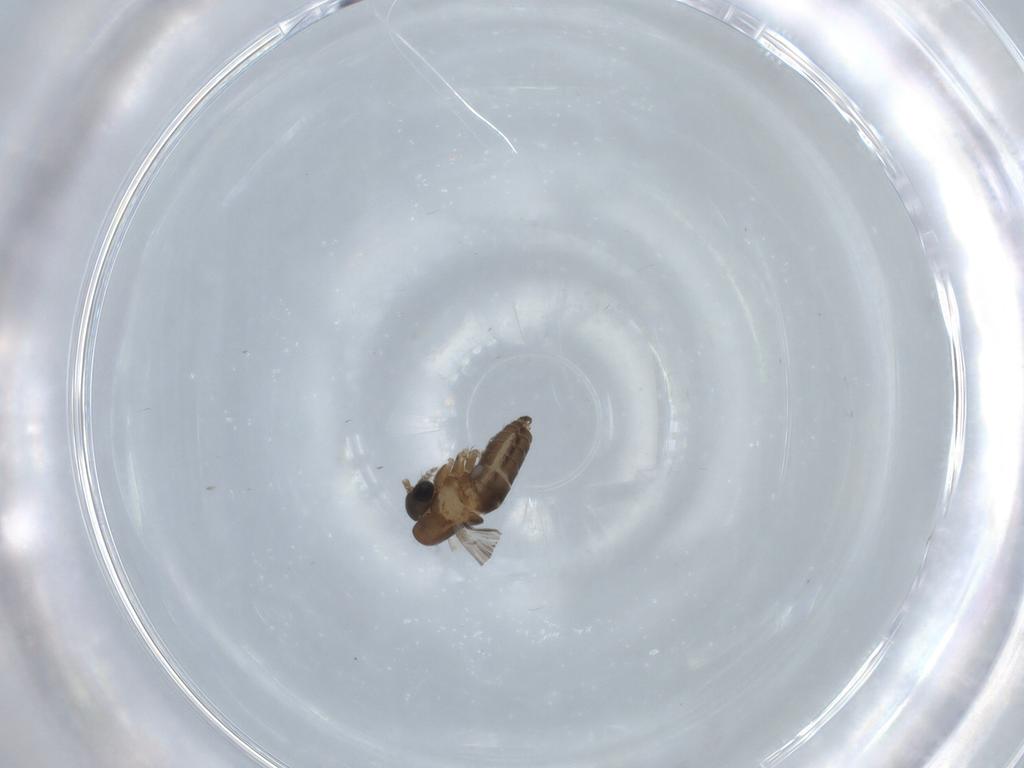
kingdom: Animalia
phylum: Arthropoda
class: Insecta
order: Diptera
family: Psychodidae
